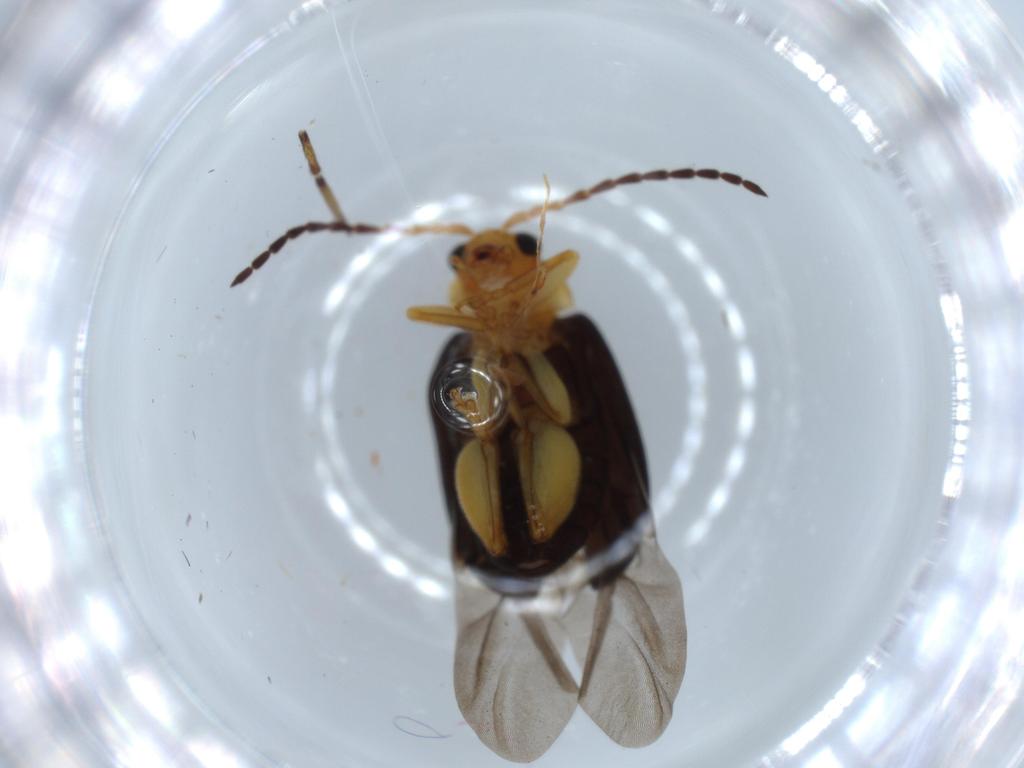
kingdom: Animalia
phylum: Arthropoda
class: Insecta
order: Coleoptera
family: Chrysomelidae
